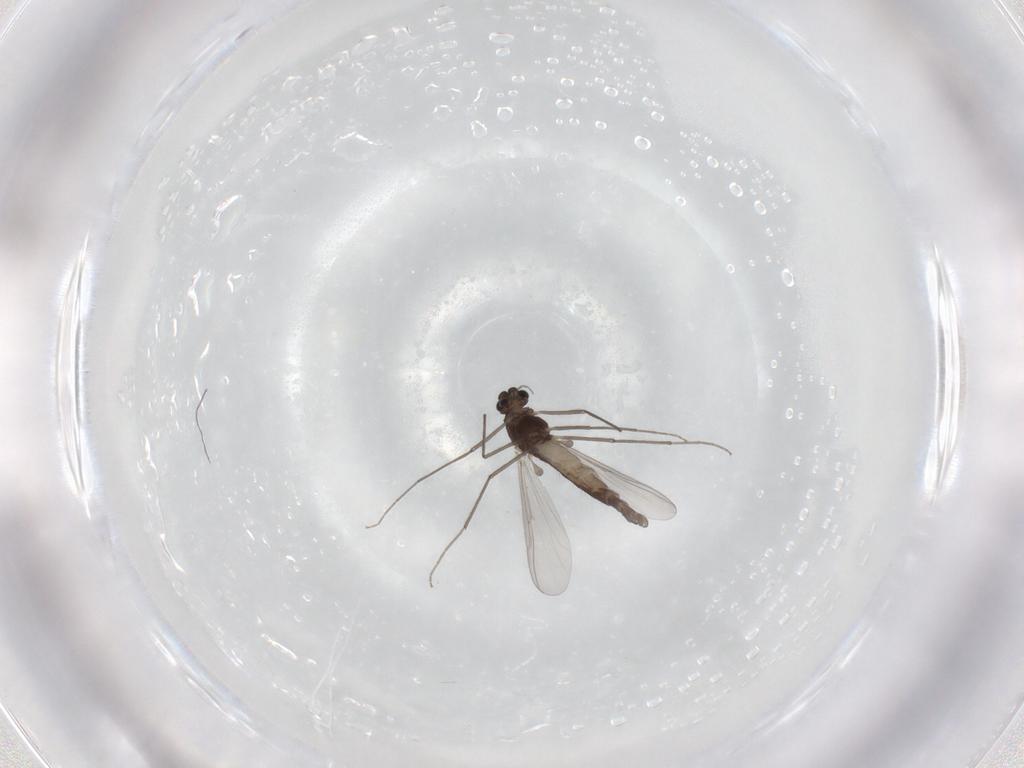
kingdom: Animalia
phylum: Arthropoda
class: Insecta
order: Diptera
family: Chironomidae
